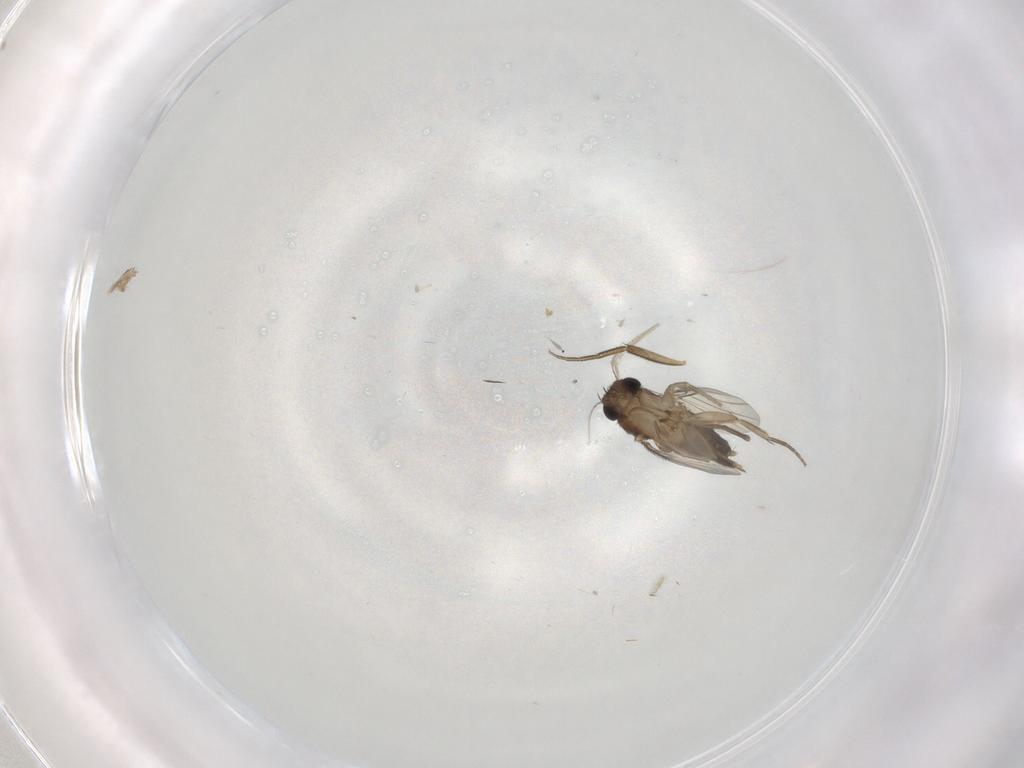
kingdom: Animalia
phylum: Arthropoda
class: Insecta
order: Diptera
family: Phoridae
